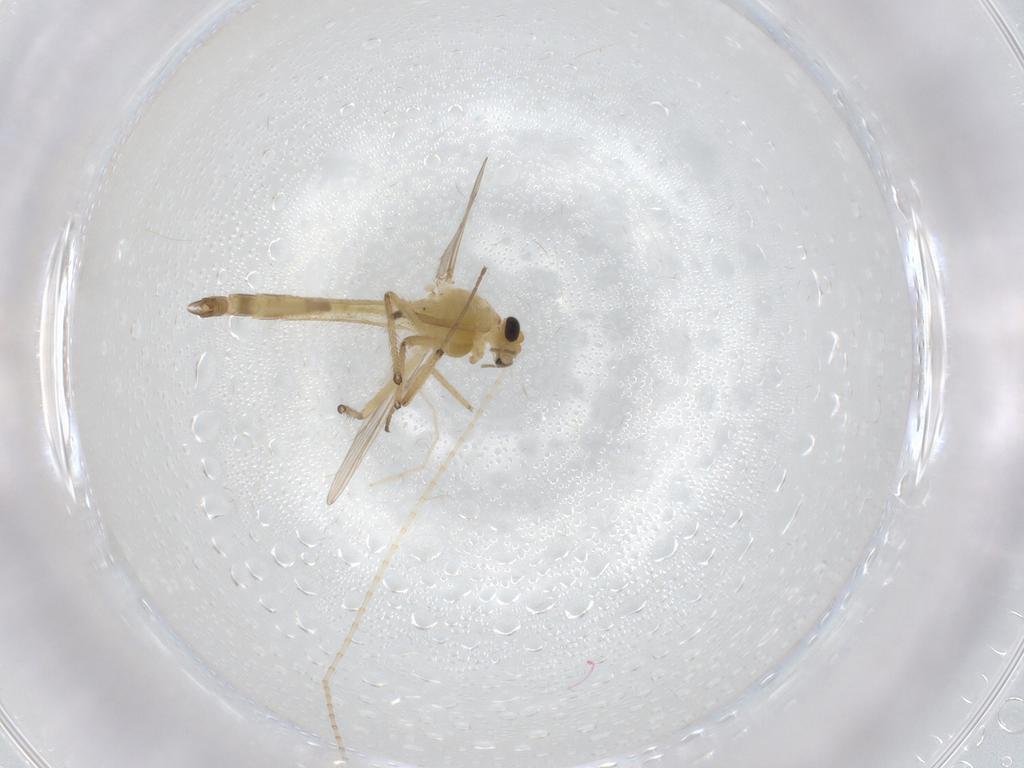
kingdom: Animalia
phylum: Arthropoda
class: Insecta
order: Diptera
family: Chironomidae
